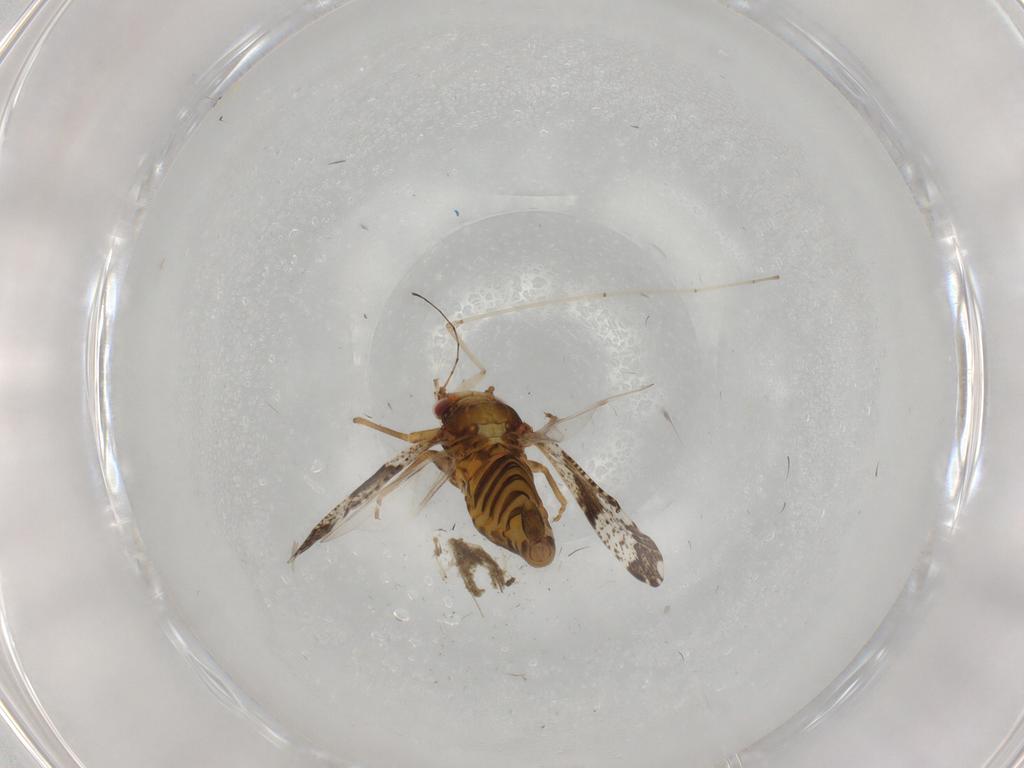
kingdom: Animalia
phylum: Arthropoda
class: Insecta
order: Hemiptera
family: Psyllidae
